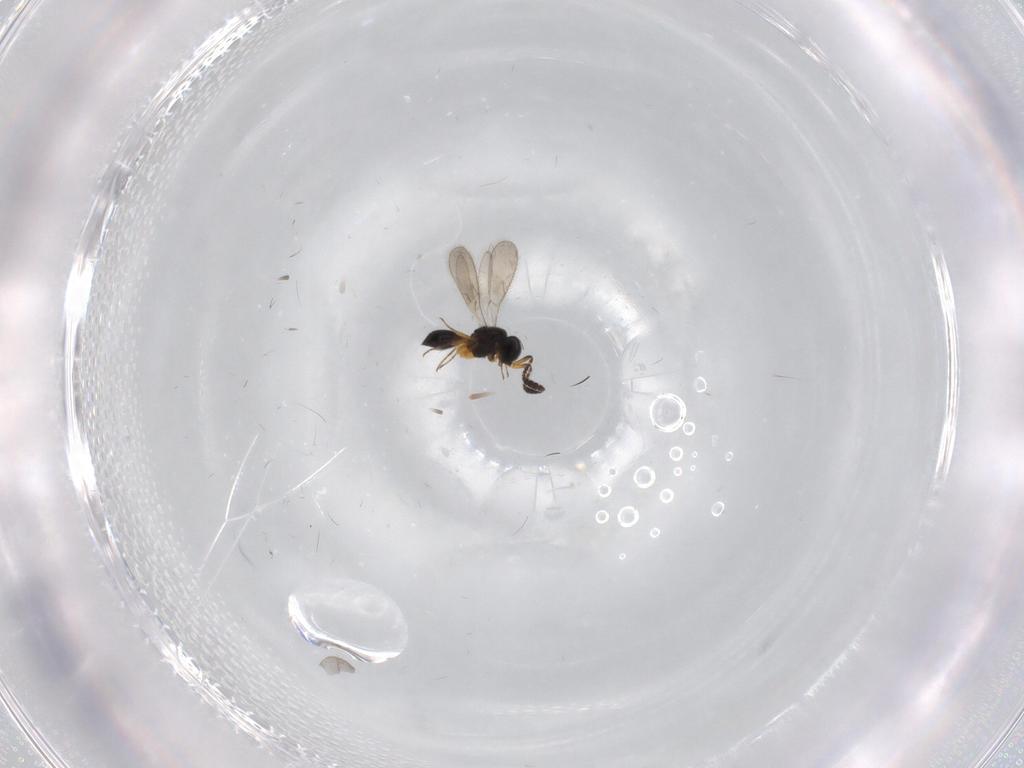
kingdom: Animalia
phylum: Arthropoda
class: Insecta
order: Hymenoptera
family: Scelionidae
